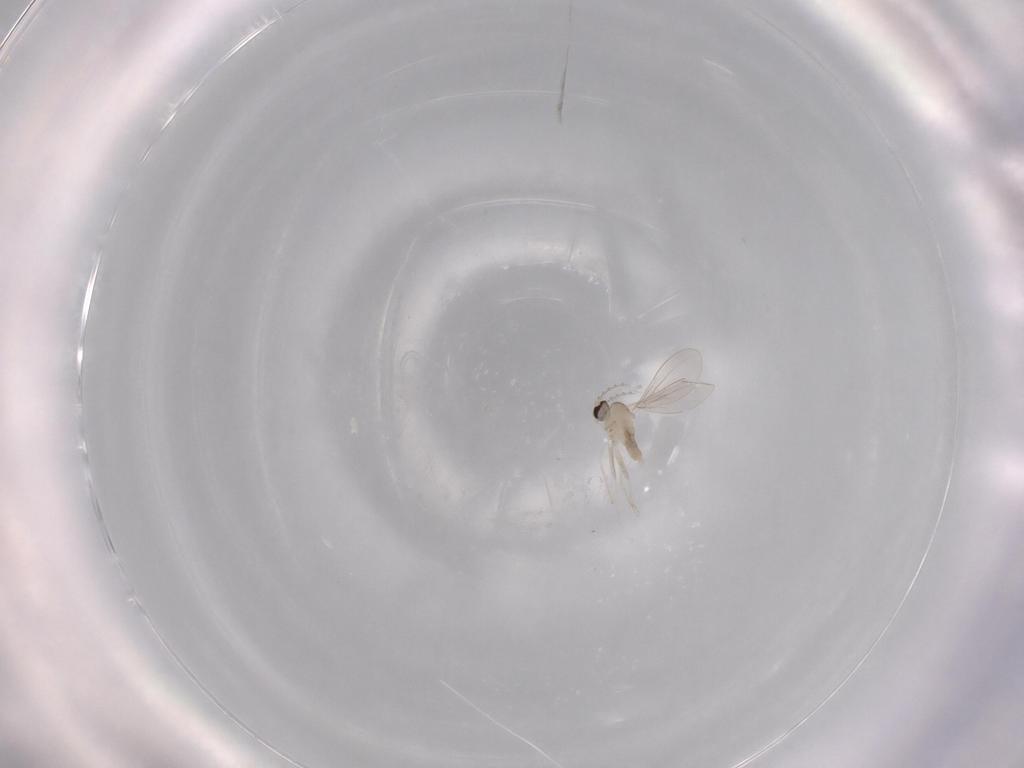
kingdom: Animalia
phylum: Arthropoda
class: Insecta
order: Diptera
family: Cecidomyiidae
